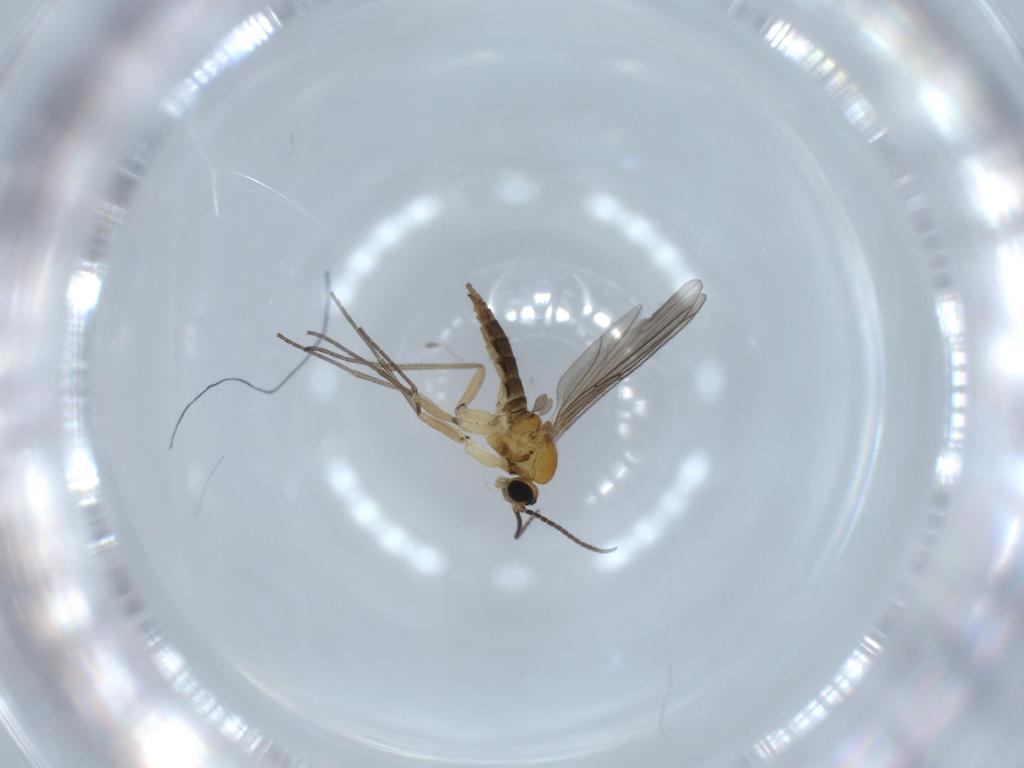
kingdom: Animalia
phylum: Arthropoda
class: Insecta
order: Diptera
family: Sciaridae
